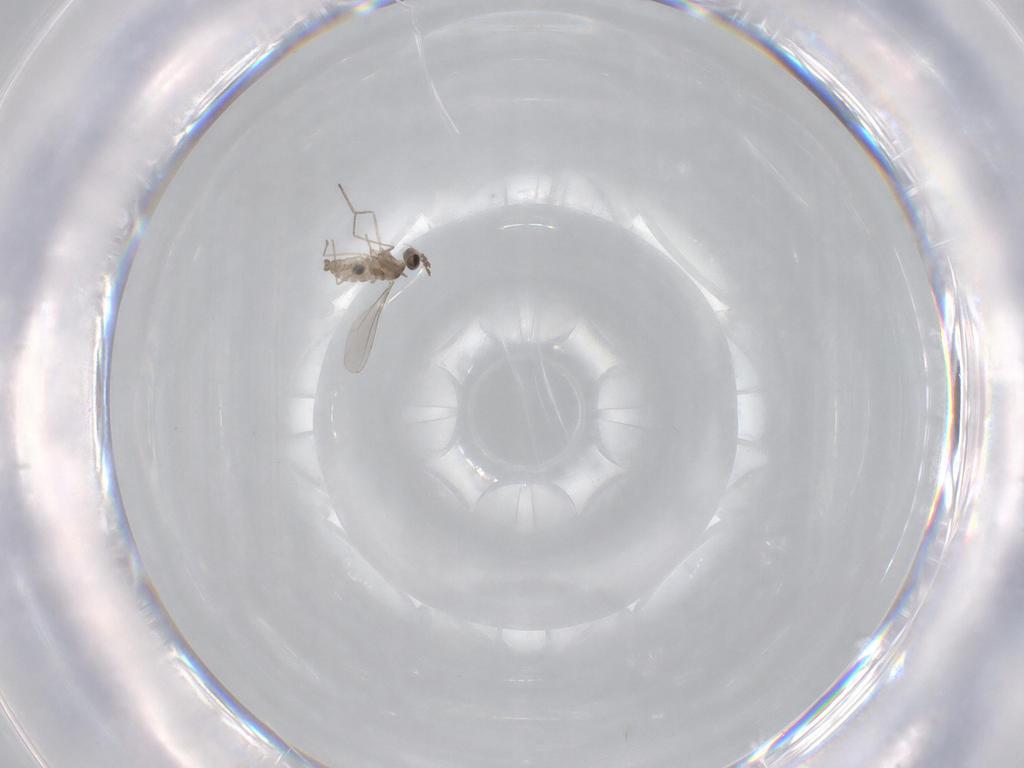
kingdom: Animalia
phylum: Arthropoda
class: Insecta
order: Diptera
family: Ceratopogonidae
